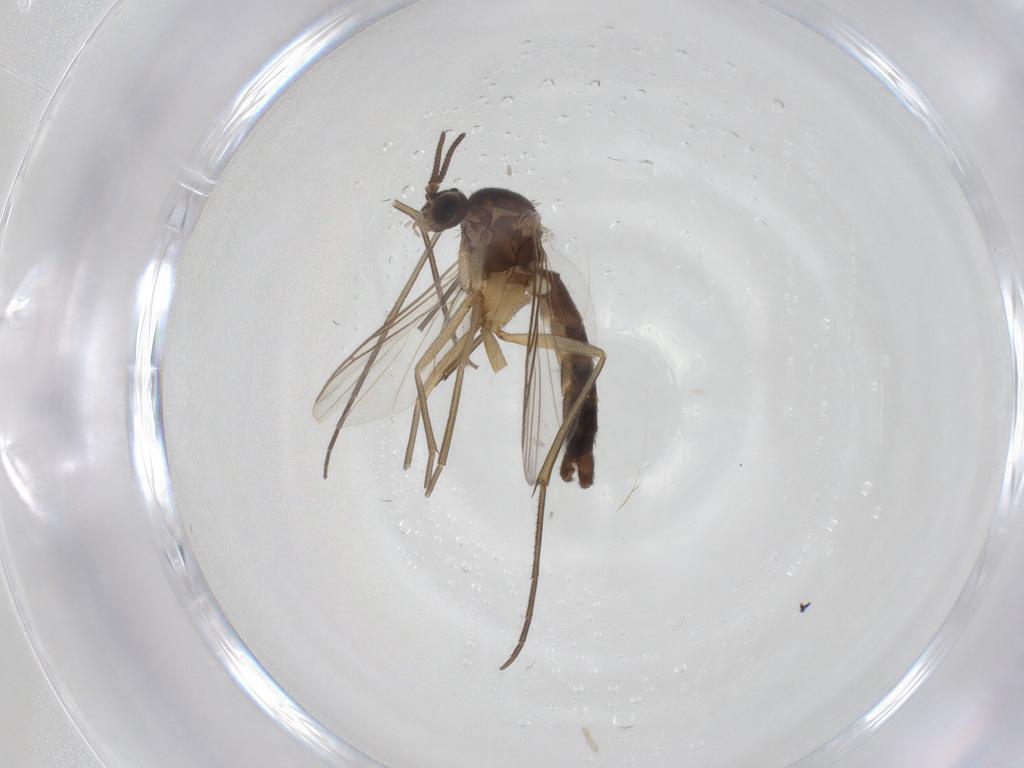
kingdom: Animalia
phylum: Arthropoda
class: Insecta
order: Diptera
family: Keroplatidae
